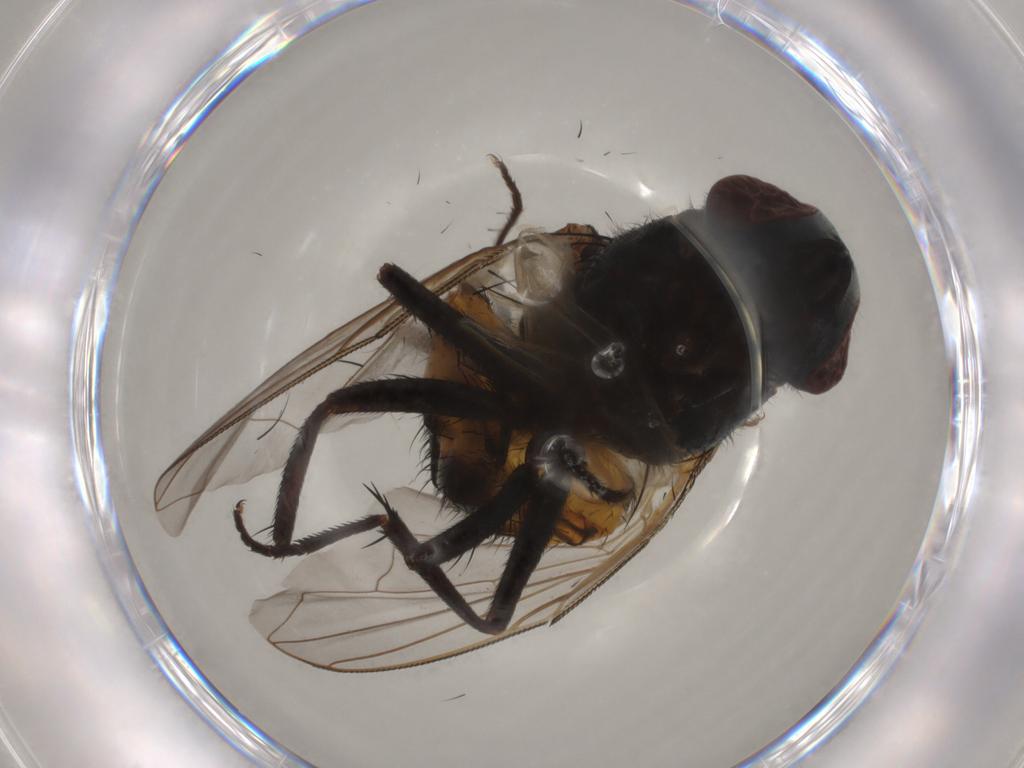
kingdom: Animalia
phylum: Arthropoda
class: Insecta
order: Diptera
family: Muscidae
